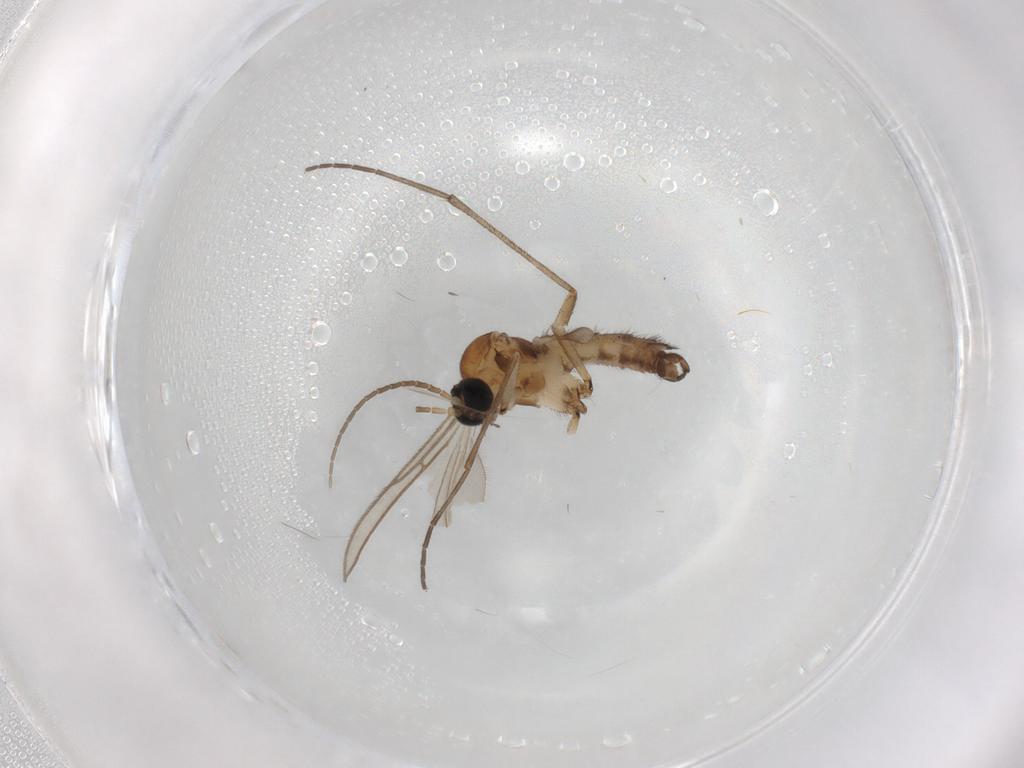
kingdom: Animalia
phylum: Arthropoda
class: Insecta
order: Diptera
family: Sciaridae
